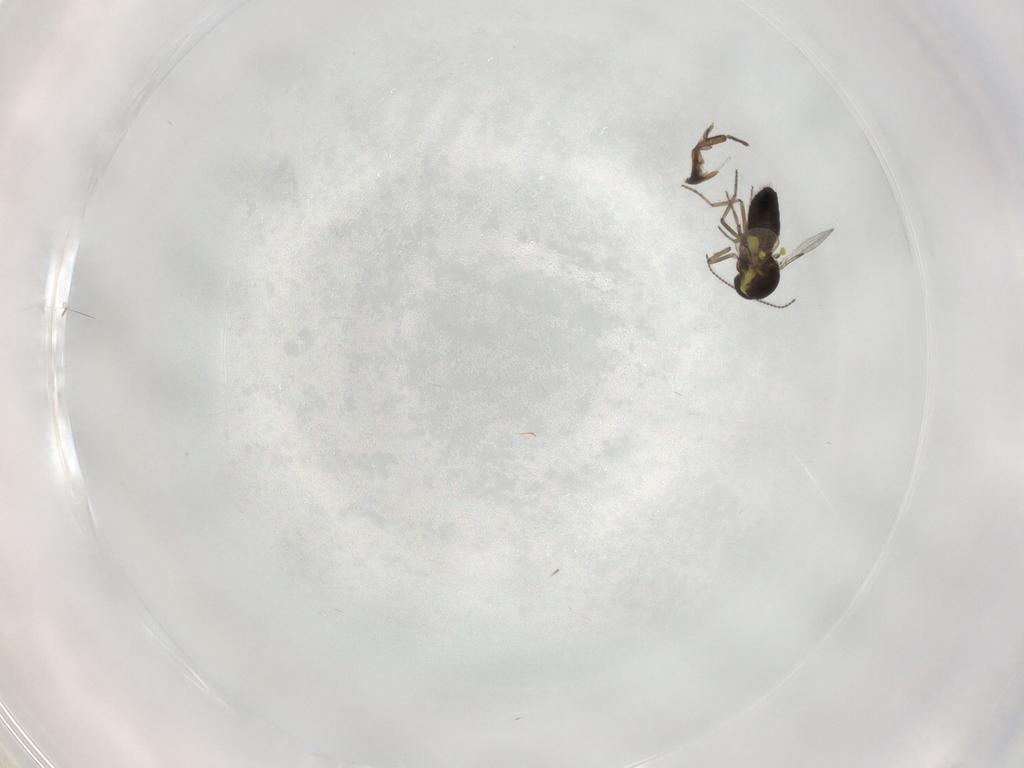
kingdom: Animalia
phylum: Arthropoda
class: Insecta
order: Diptera
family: Ceratopogonidae
